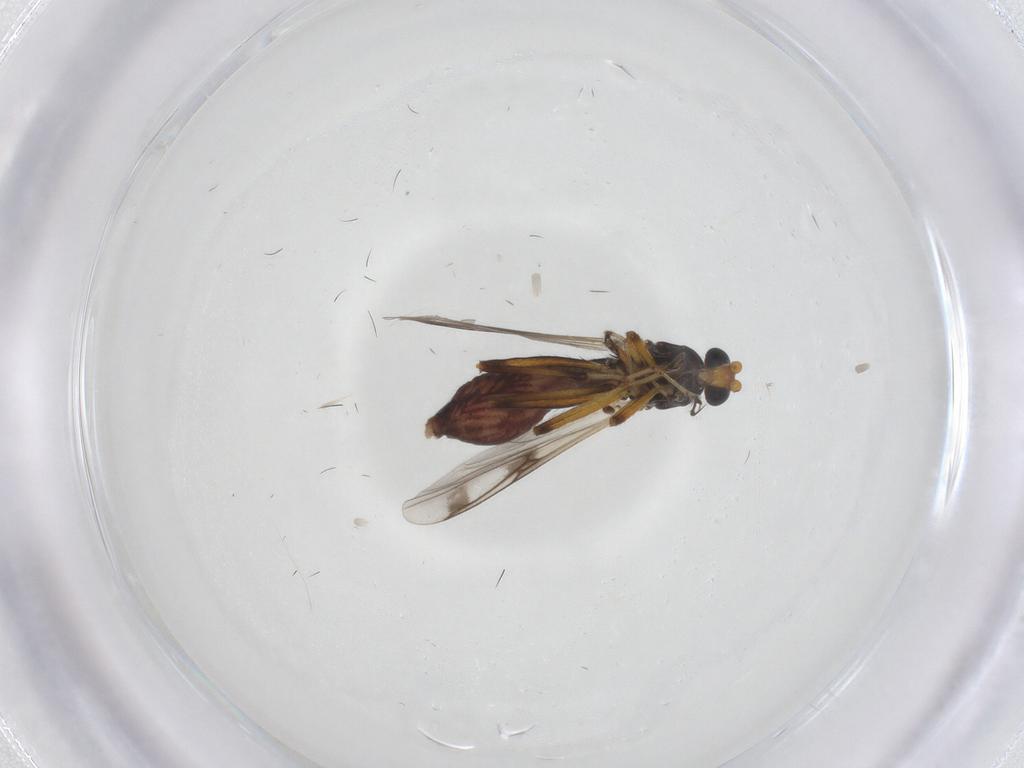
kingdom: Animalia
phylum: Arthropoda
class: Insecta
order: Diptera
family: Ceratopogonidae
